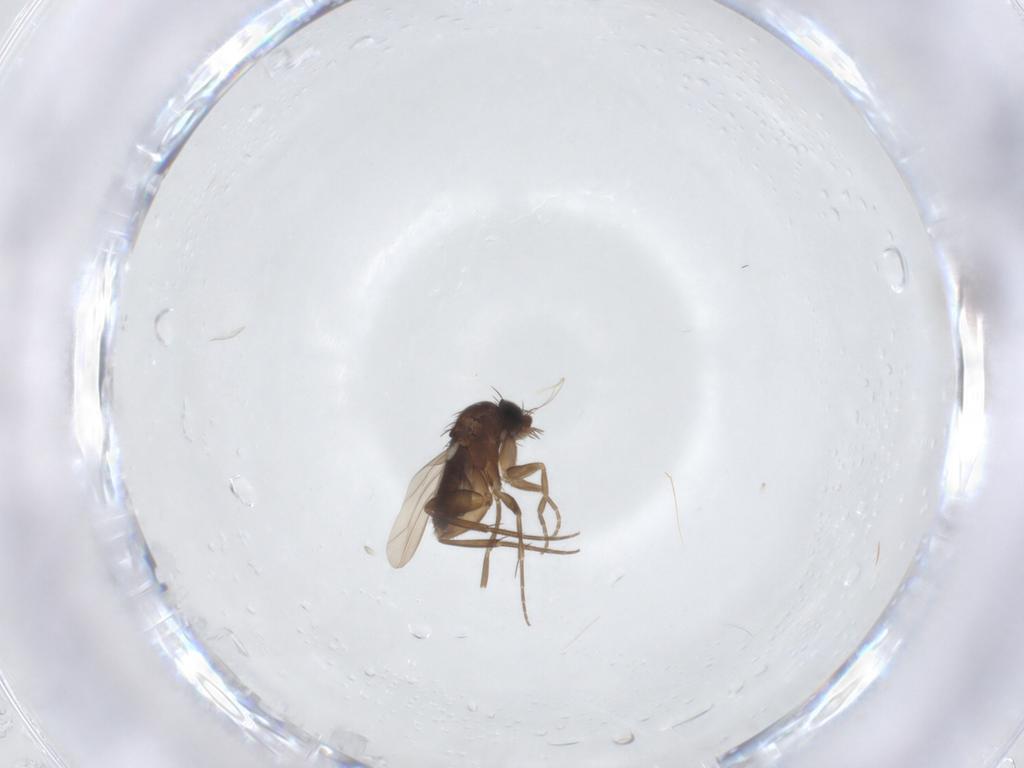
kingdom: Animalia
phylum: Arthropoda
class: Insecta
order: Diptera
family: Phoridae
